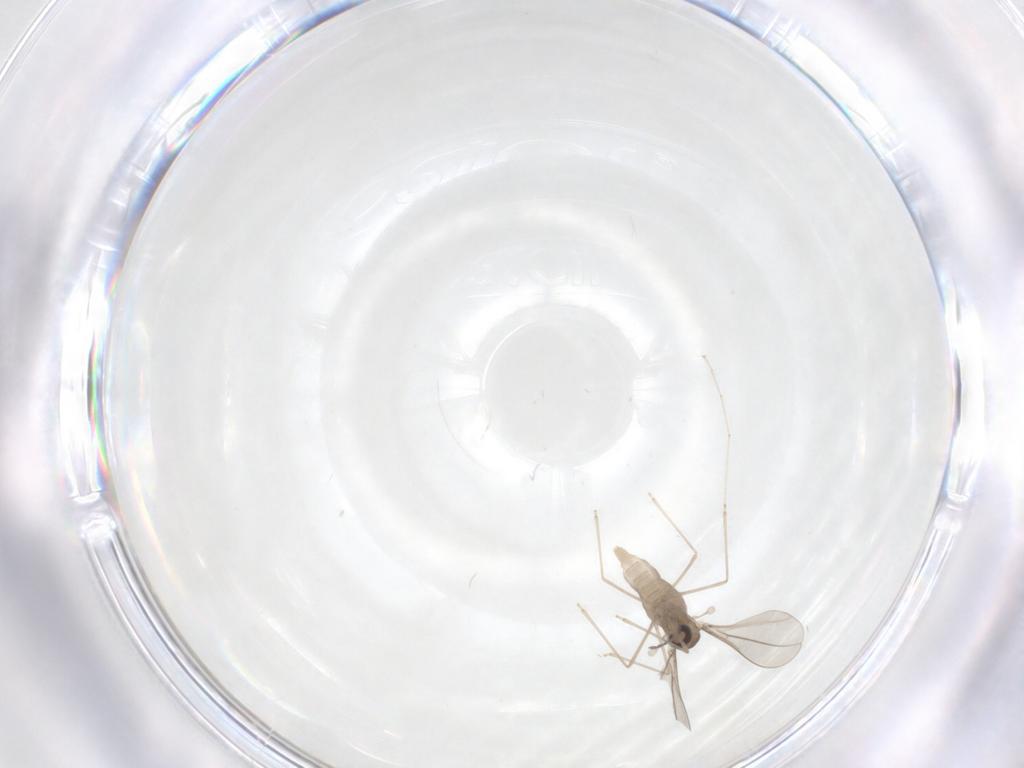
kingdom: Animalia
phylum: Arthropoda
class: Insecta
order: Diptera
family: Cecidomyiidae
